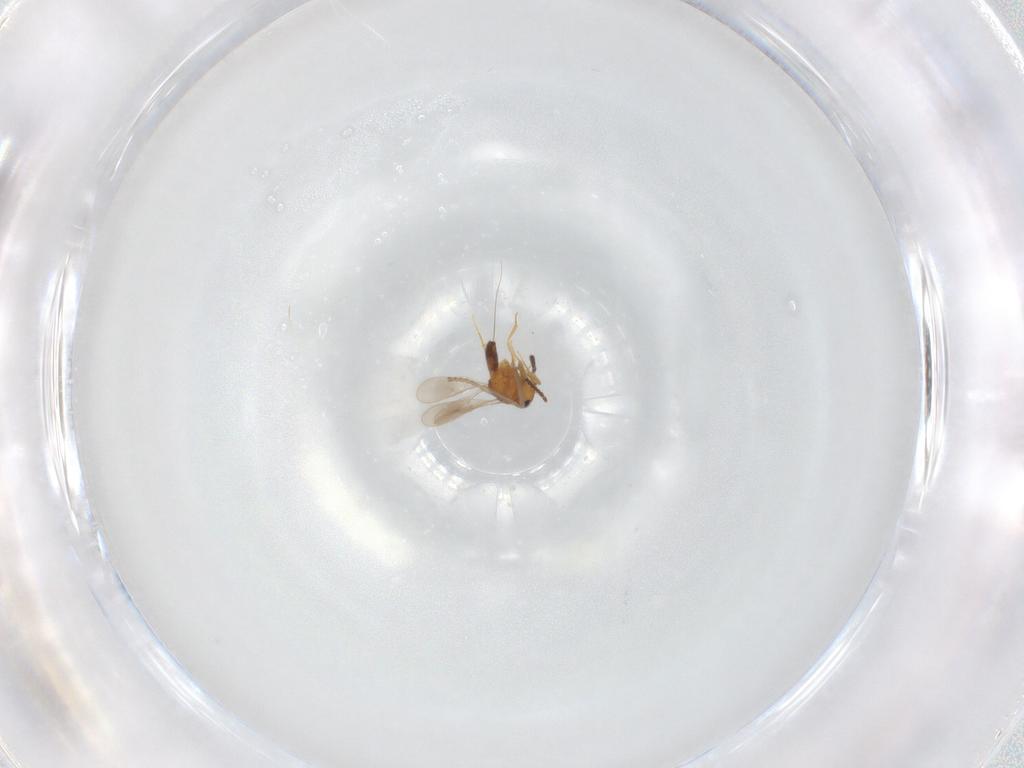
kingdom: Animalia
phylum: Arthropoda
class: Insecta
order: Hymenoptera
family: Scelionidae
